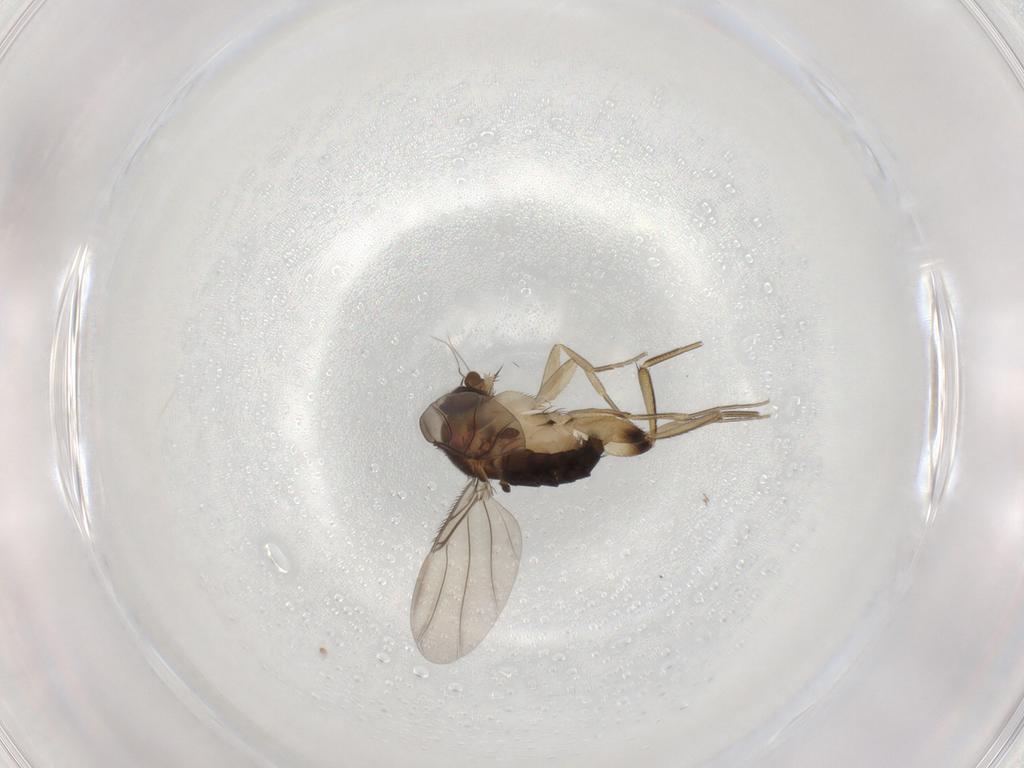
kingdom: Animalia
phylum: Arthropoda
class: Insecta
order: Diptera
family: Phoridae
